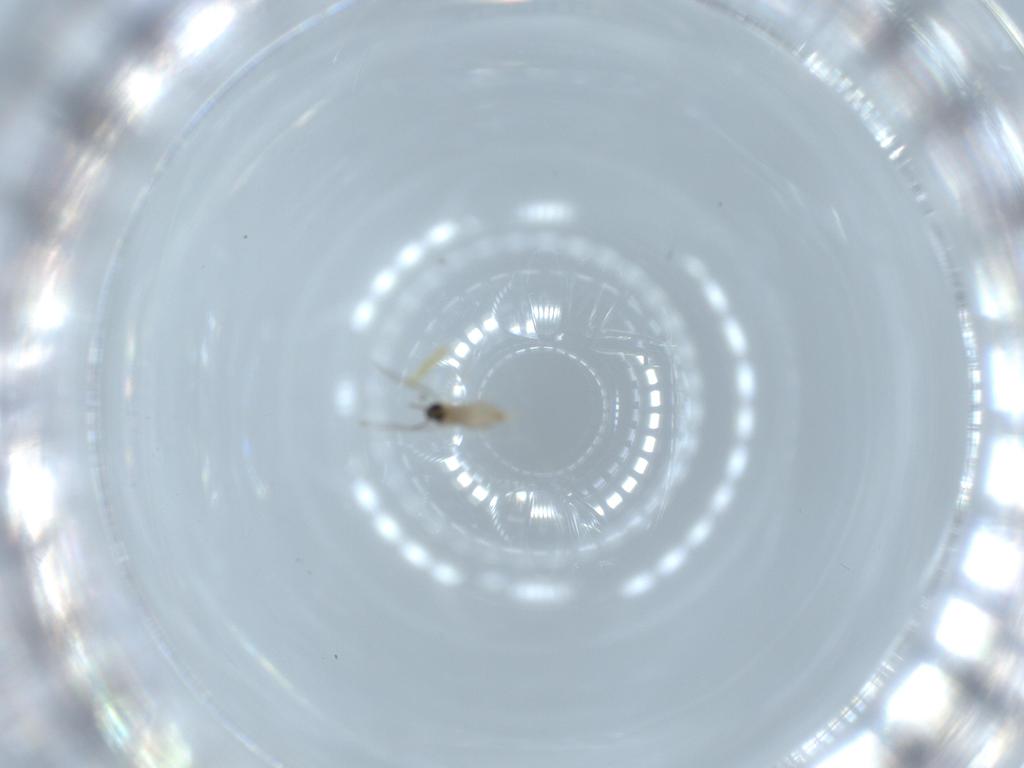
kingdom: Animalia
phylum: Arthropoda
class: Insecta
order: Diptera
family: Cecidomyiidae
